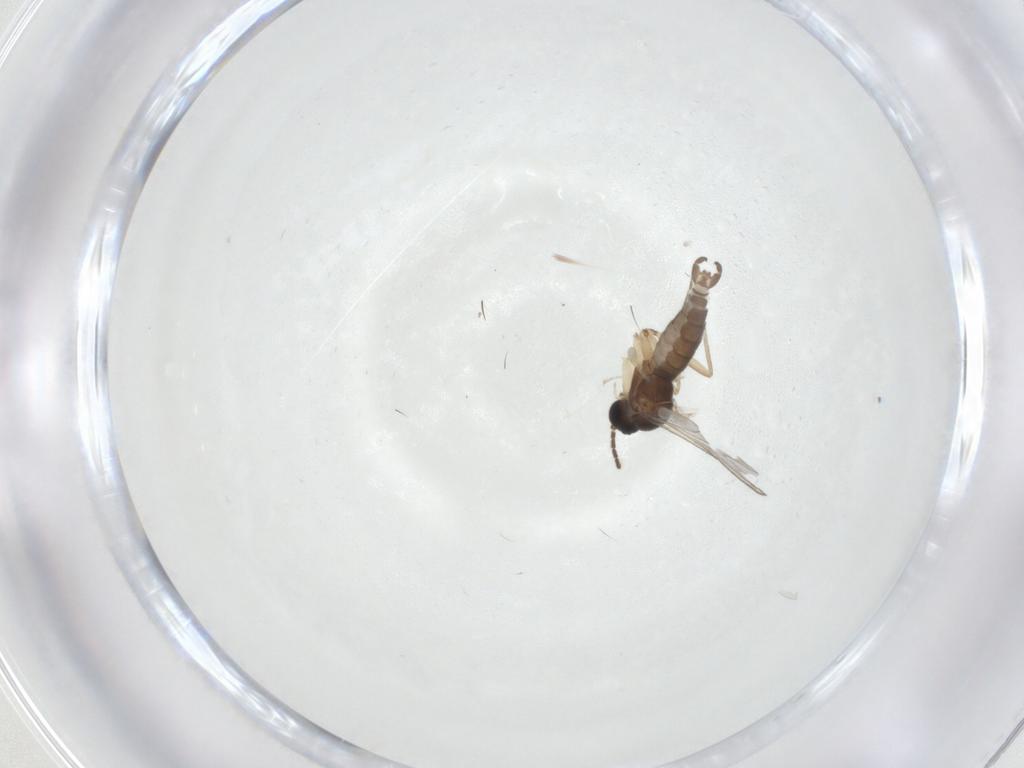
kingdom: Animalia
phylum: Arthropoda
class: Insecta
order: Diptera
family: Sciaridae
